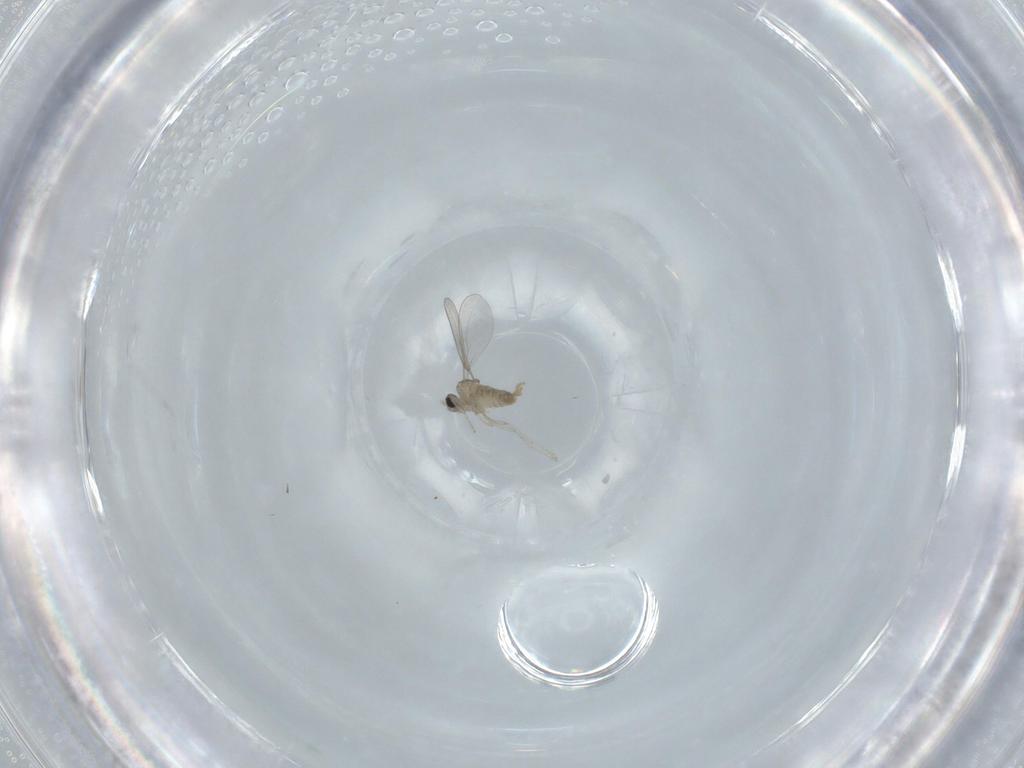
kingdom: Animalia
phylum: Arthropoda
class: Insecta
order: Diptera
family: Cecidomyiidae
